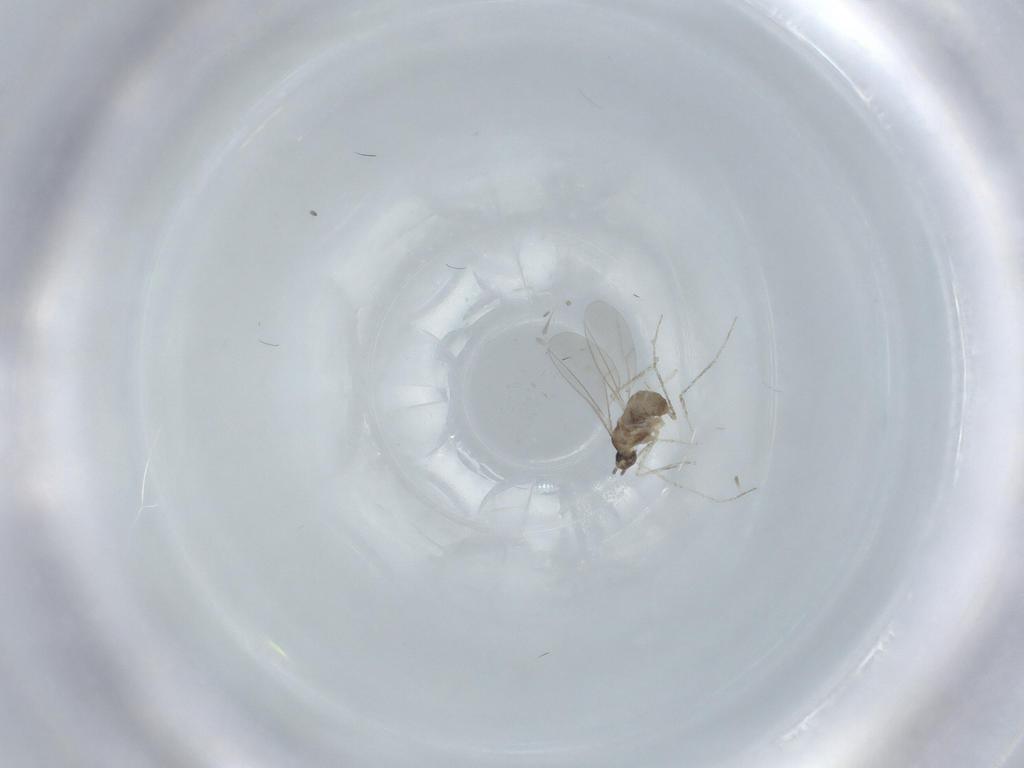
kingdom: Animalia
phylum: Arthropoda
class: Insecta
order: Diptera
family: Cecidomyiidae
